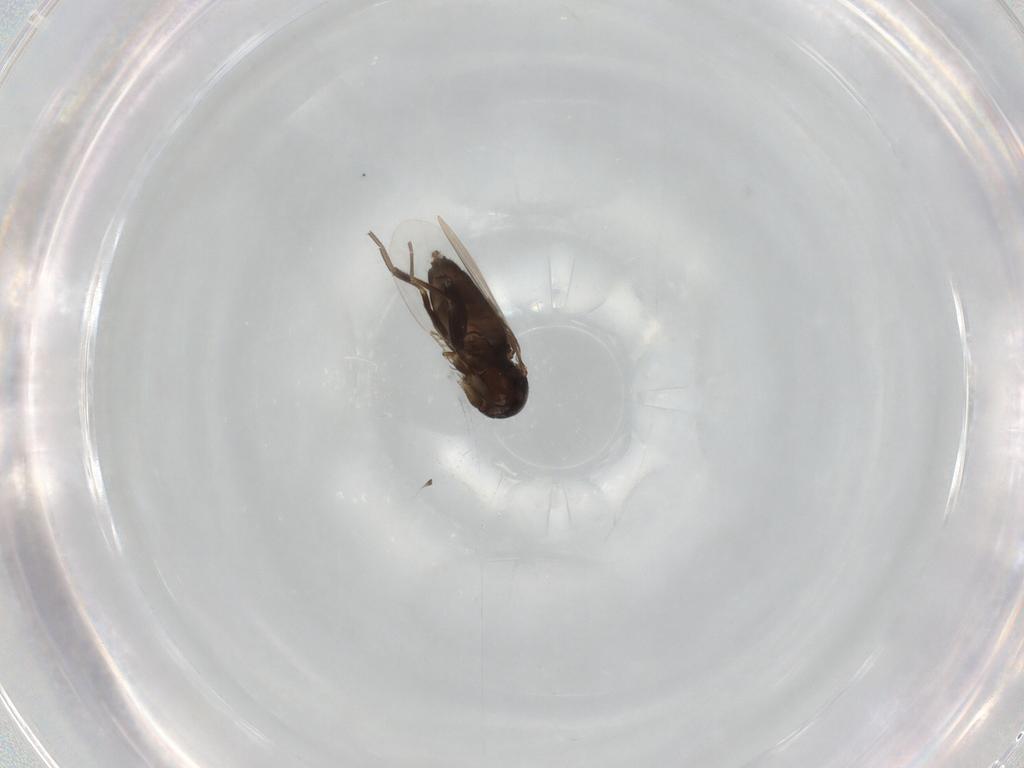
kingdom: Animalia
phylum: Arthropoda
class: Insecta
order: Diptera
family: Phoridae
